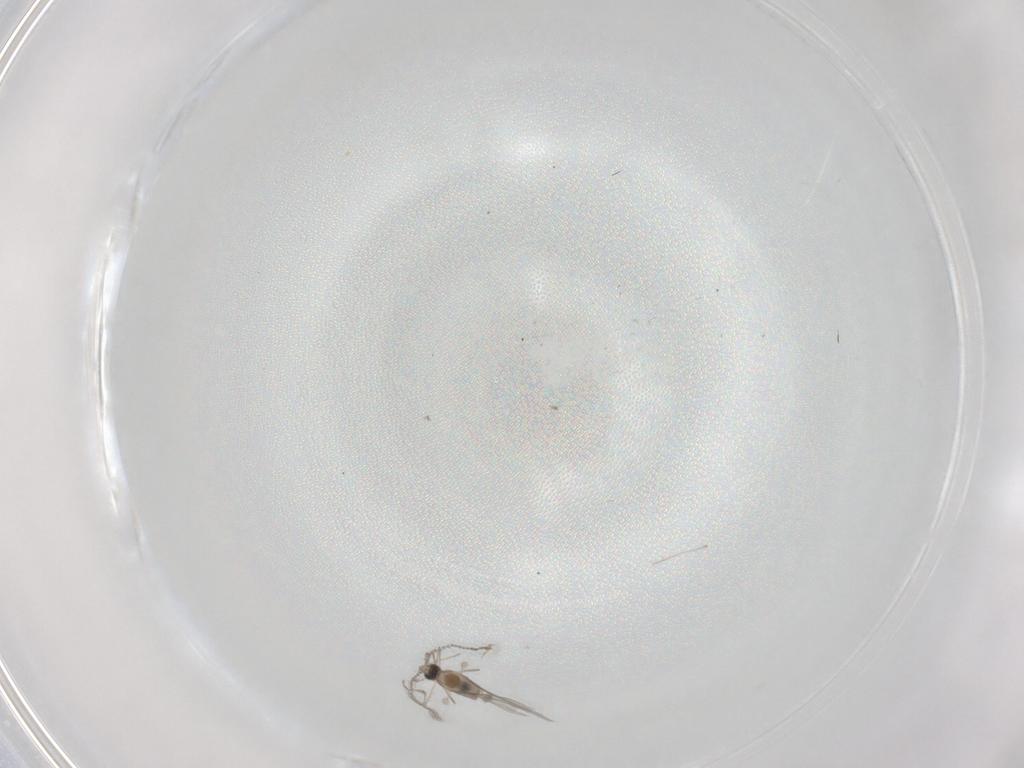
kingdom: Animalia
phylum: Arthropoda
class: Insecta
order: Diptera
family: Cecidomyiidae
